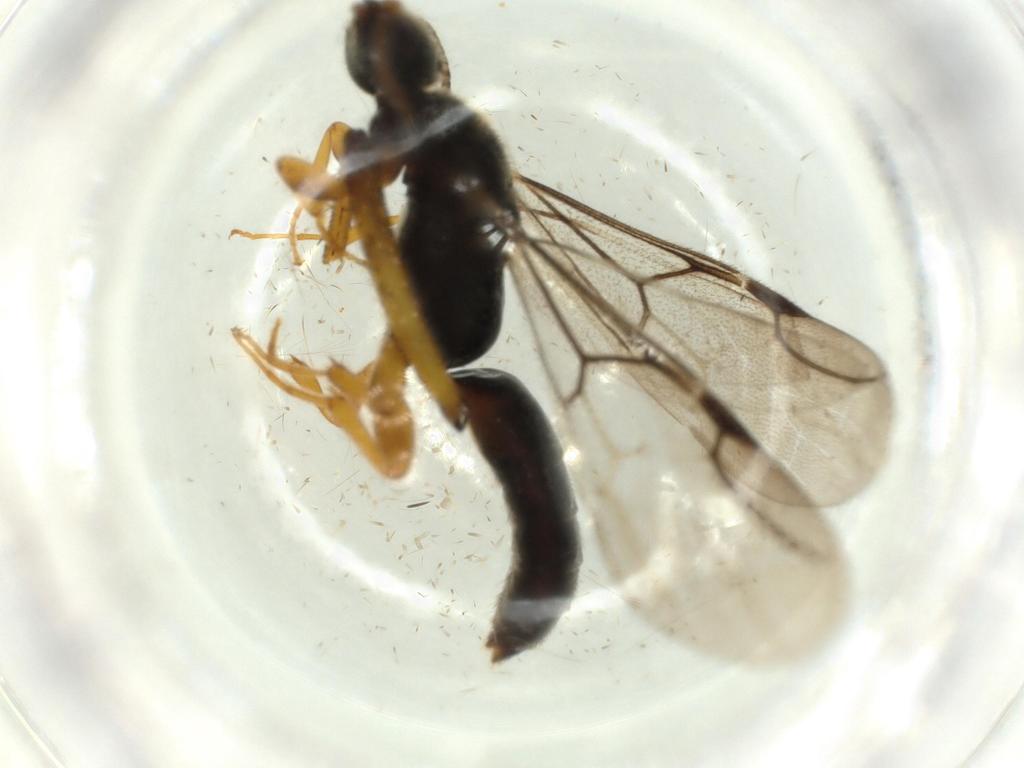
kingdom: Animalia
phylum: Arthropoda
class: Insecta
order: Hymenoptera
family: Bethylidae
